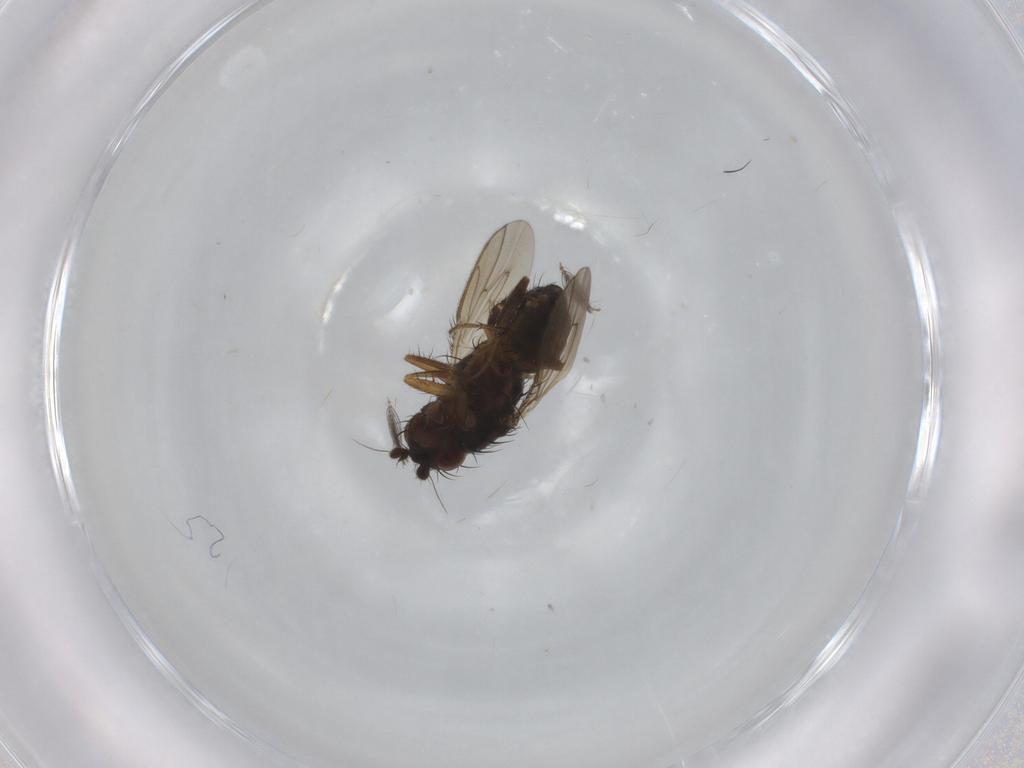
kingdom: Animalia
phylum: Arthropoda
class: Insecta
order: Diptera
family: Sphaeroceridae
